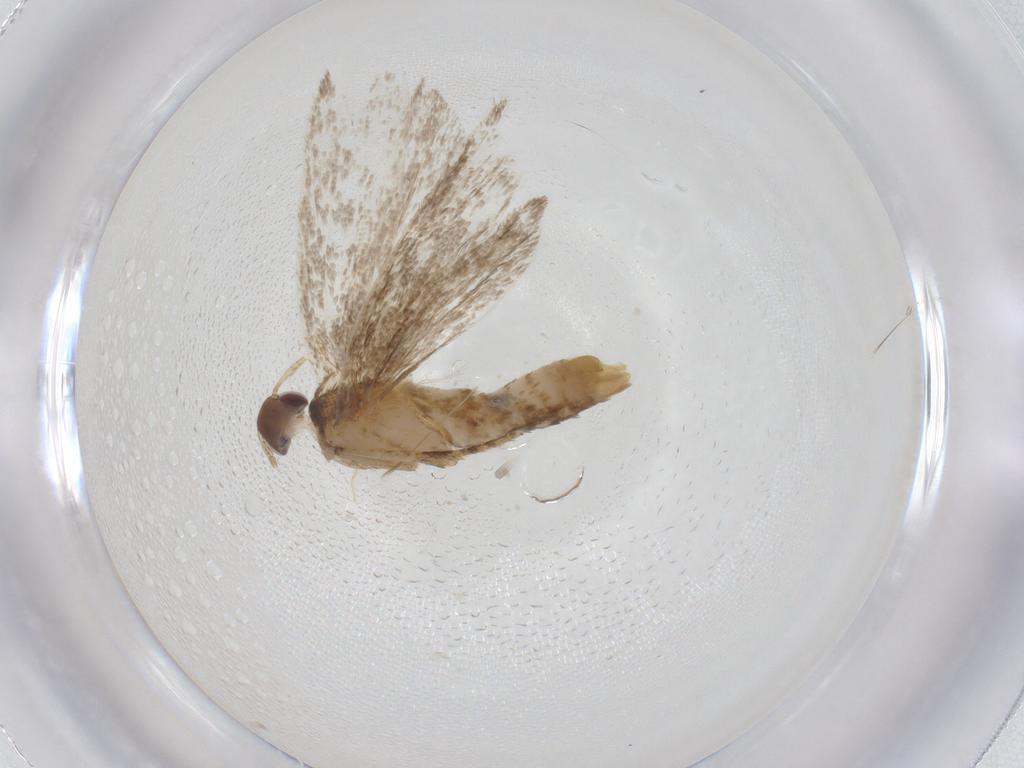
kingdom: Animalia
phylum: Arthropoda
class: Insecta
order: Lepidoptera
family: Gelechiidae
